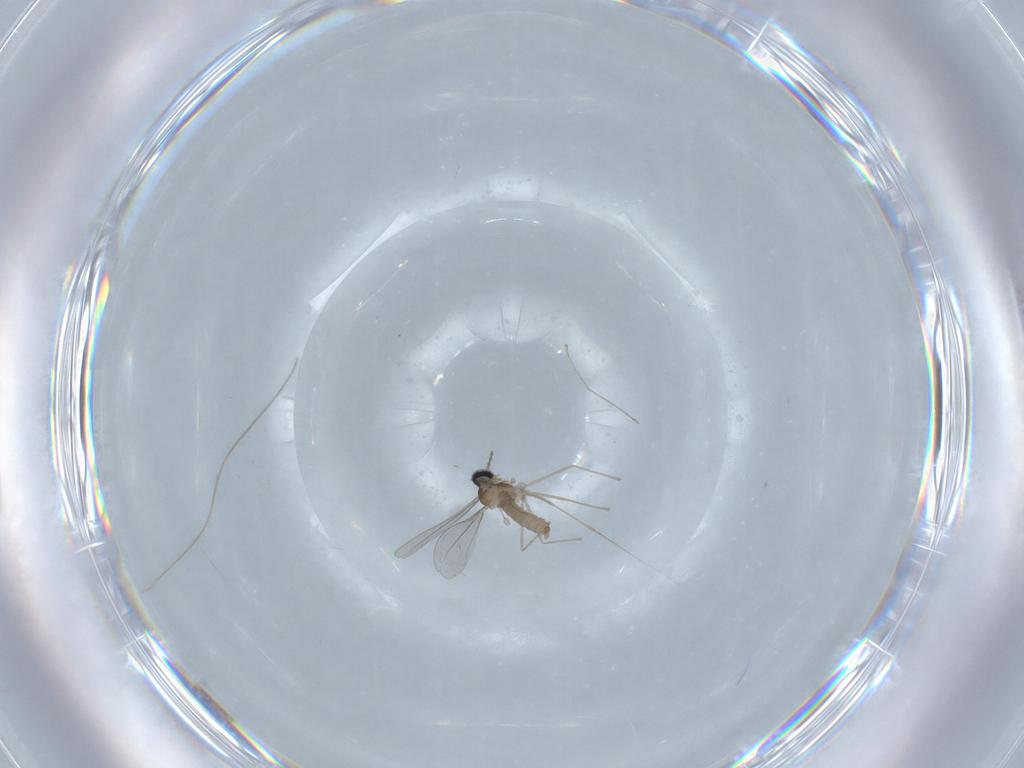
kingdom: Animalia
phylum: Arthropoda
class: Insecta
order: Diptera
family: Cecidomyiidae
